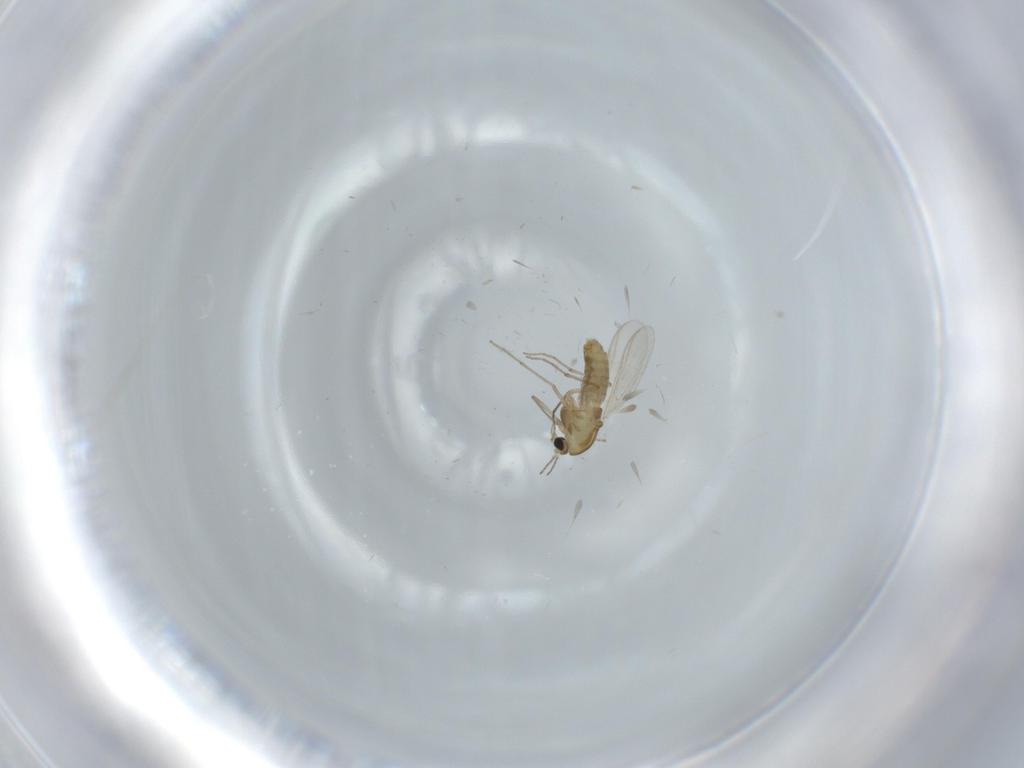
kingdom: Animalia
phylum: Arthropoda
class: Insecta
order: Diptera
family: Chironomidae
